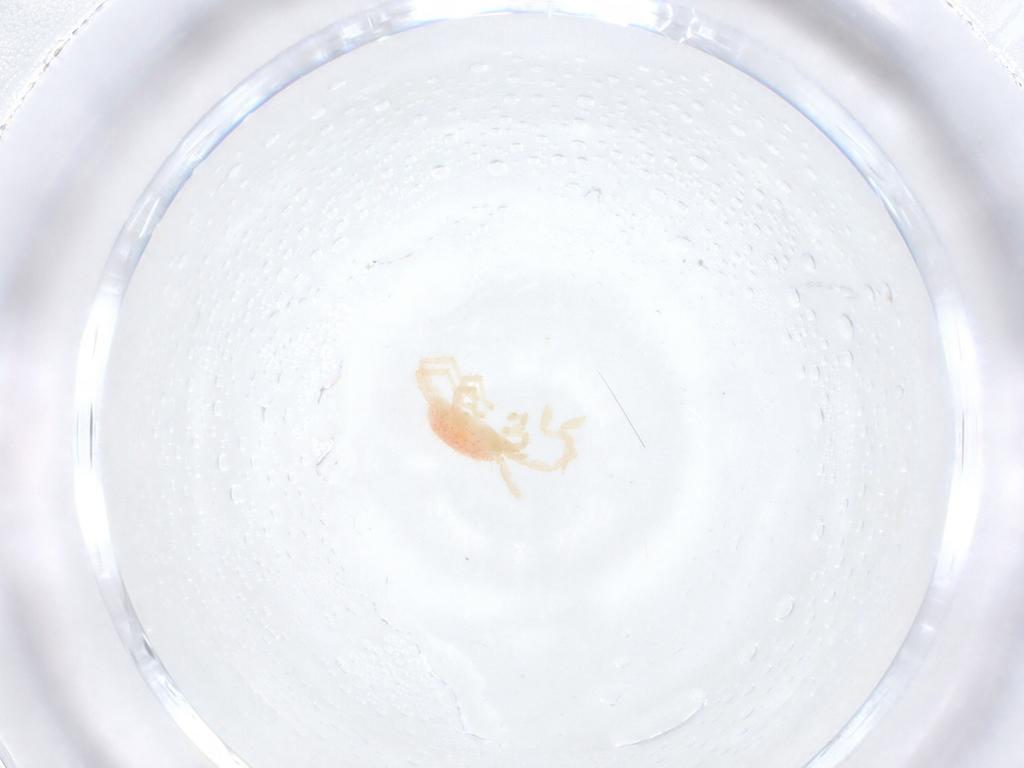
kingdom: Animalia
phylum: Arthropoda
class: Arachnida
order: Trombidiformes
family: Erythraeidae
